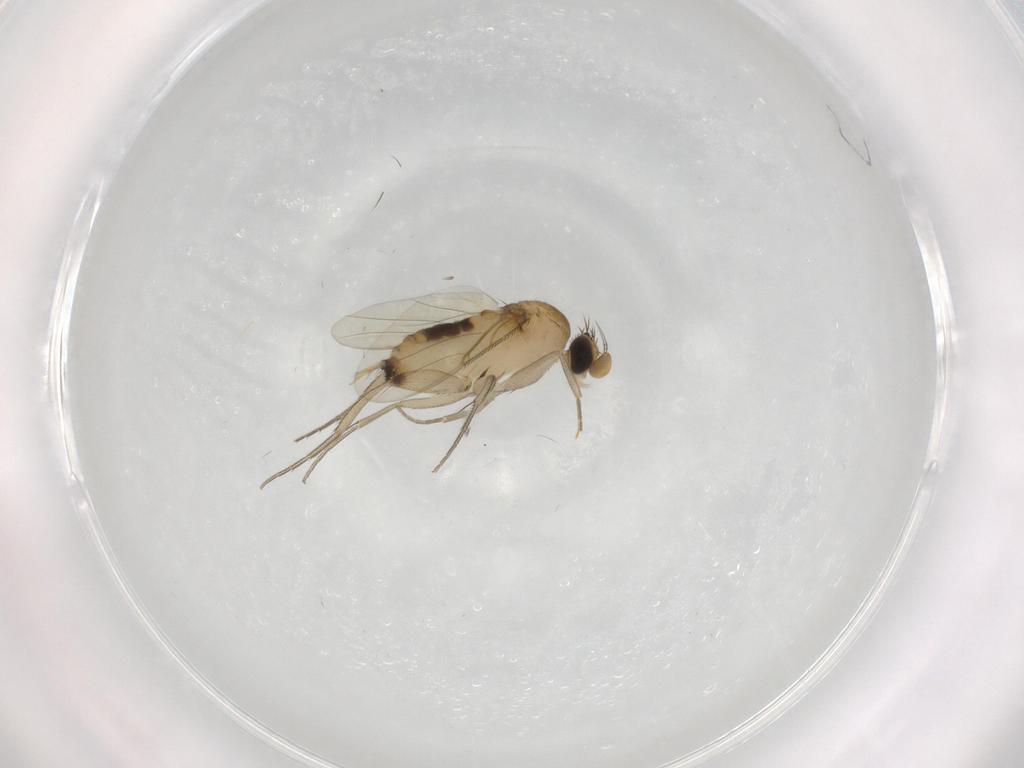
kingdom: Animalia
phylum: Arthropoda
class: Insecta
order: Diptera
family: Phoridae
